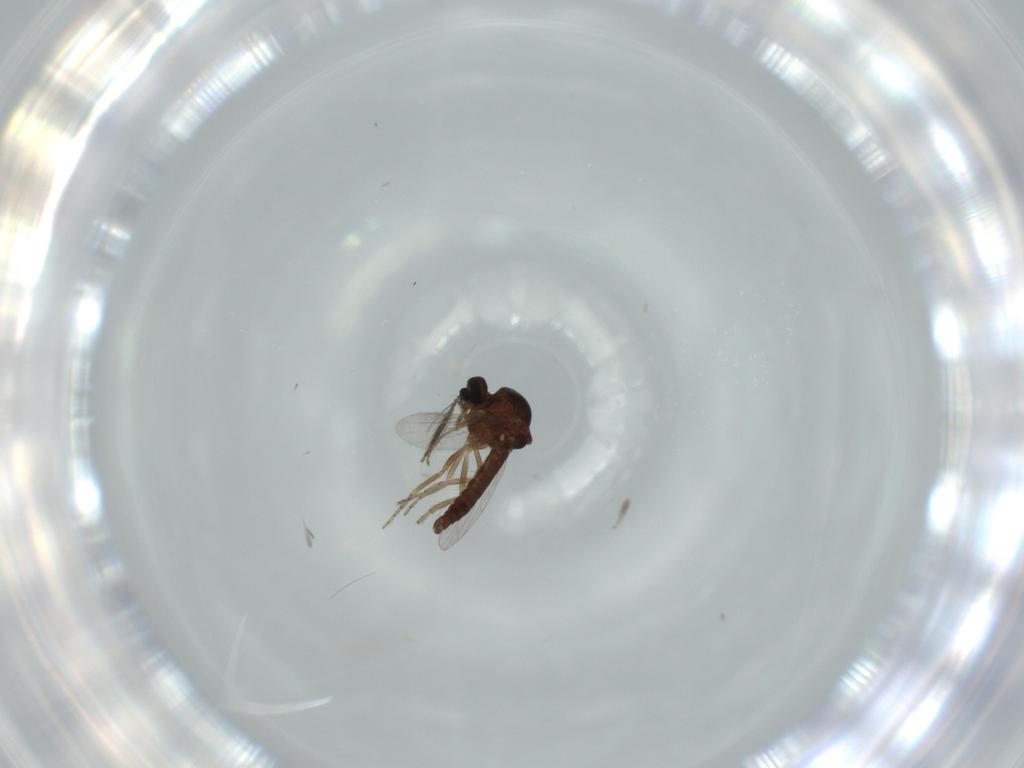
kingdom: Animalia
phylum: Arthropoda
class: Insecta
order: Diptera
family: Ceratopogonidae
